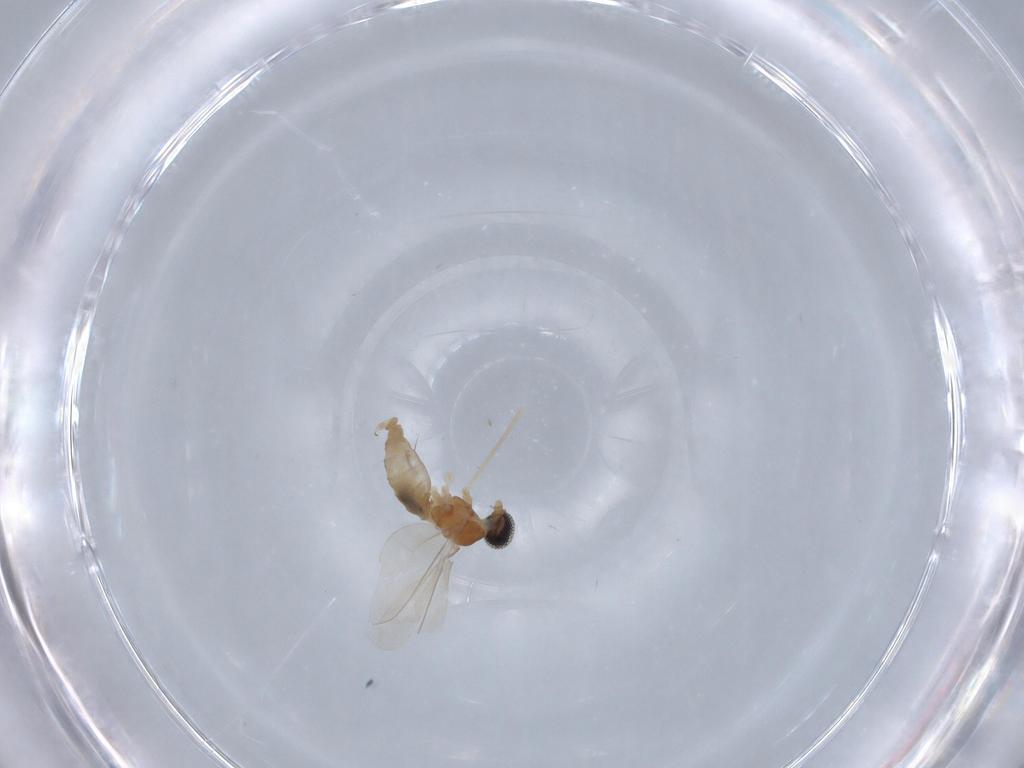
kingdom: Animalia
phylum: Arthropoda
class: Insecta
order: Diptera
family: Cecidomyiidae
